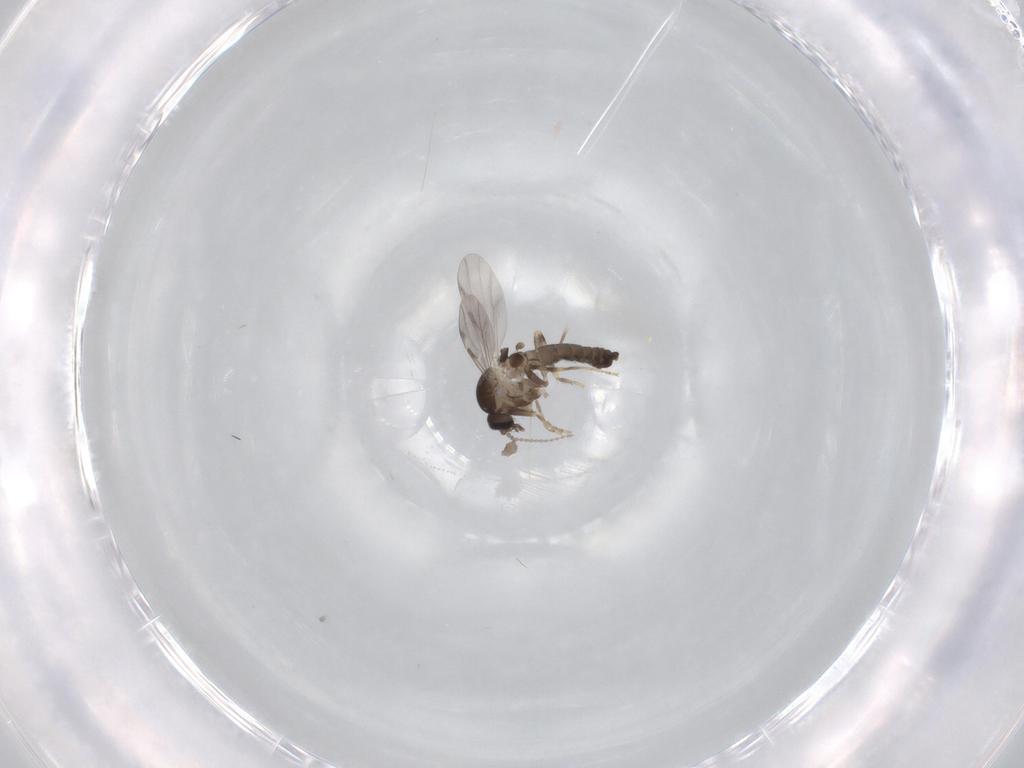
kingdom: Animalia
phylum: Arthropoda
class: Insecta
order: Diptera
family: Ceratopogonidae
